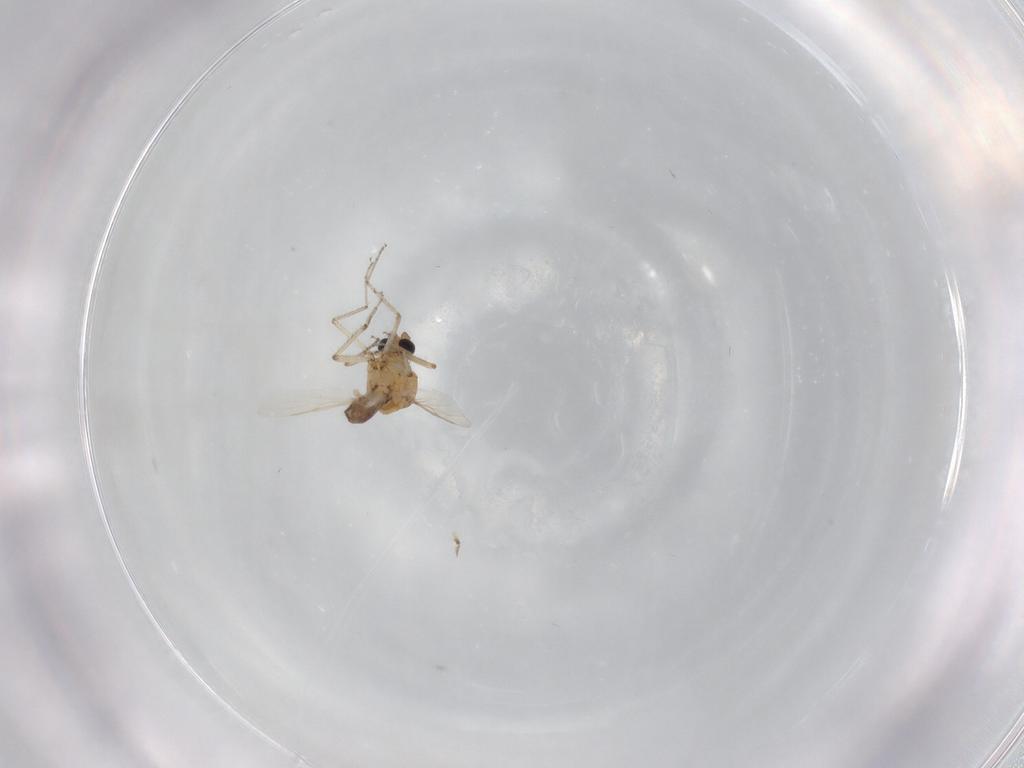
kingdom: Animalia
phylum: Arthropoda
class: Insecta
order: Diptera
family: Ceratopogonidae
